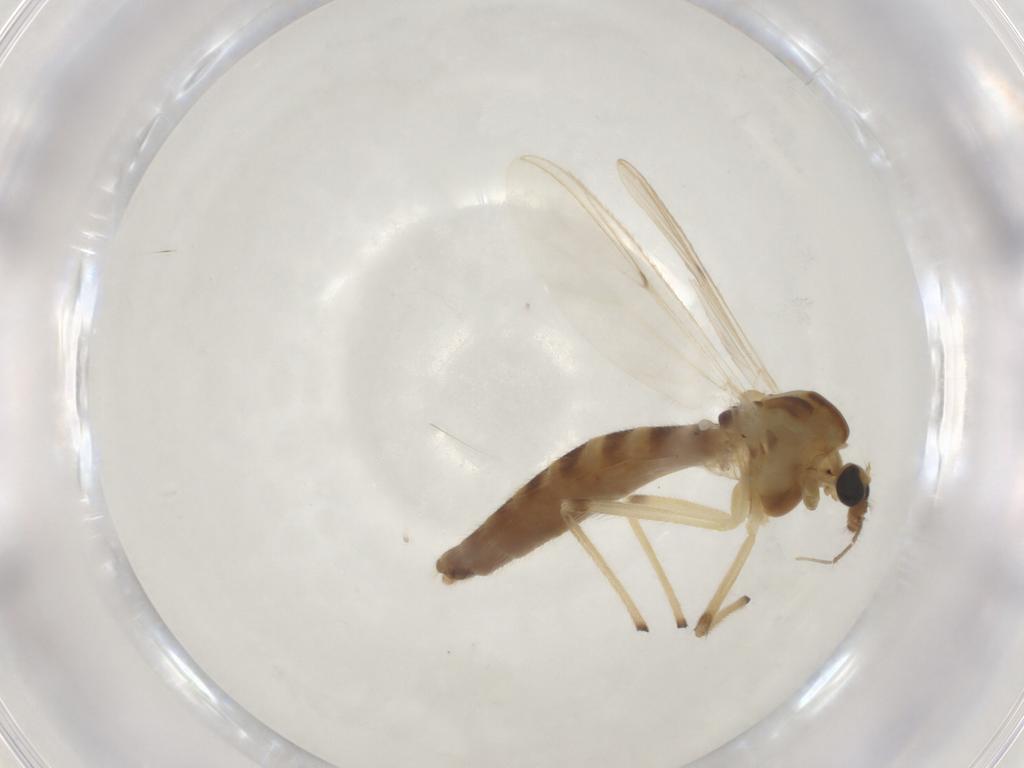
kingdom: Animalia
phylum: Arthropoda
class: Insecta
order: Diptera
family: Chironomidae
